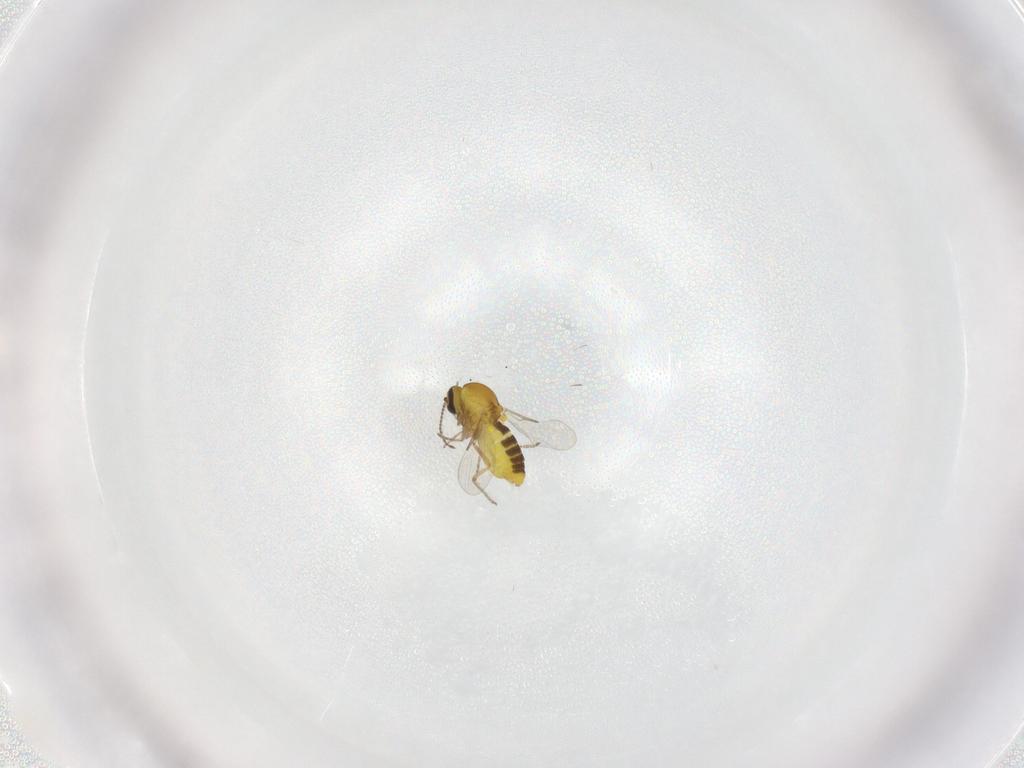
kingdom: Animalia
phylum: Arthropoda
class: Insecta
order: Diptera
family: Ceratopogonidae
